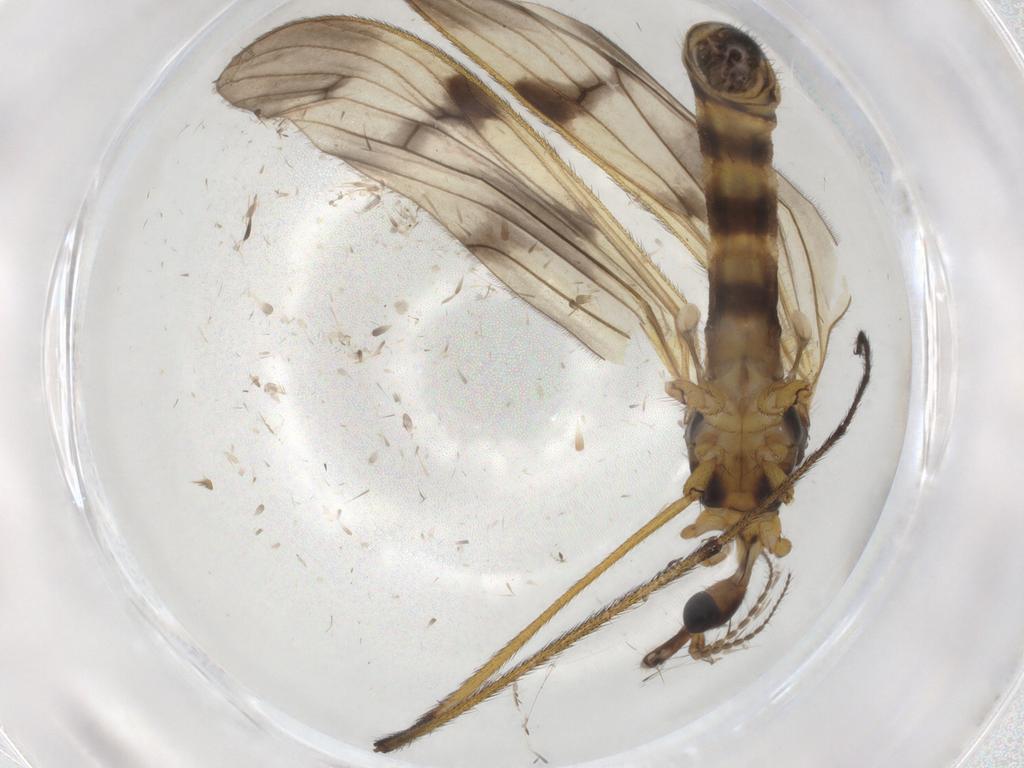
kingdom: Animalia
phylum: Arthropoda
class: Insecta
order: Diptera
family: Limoniidae
